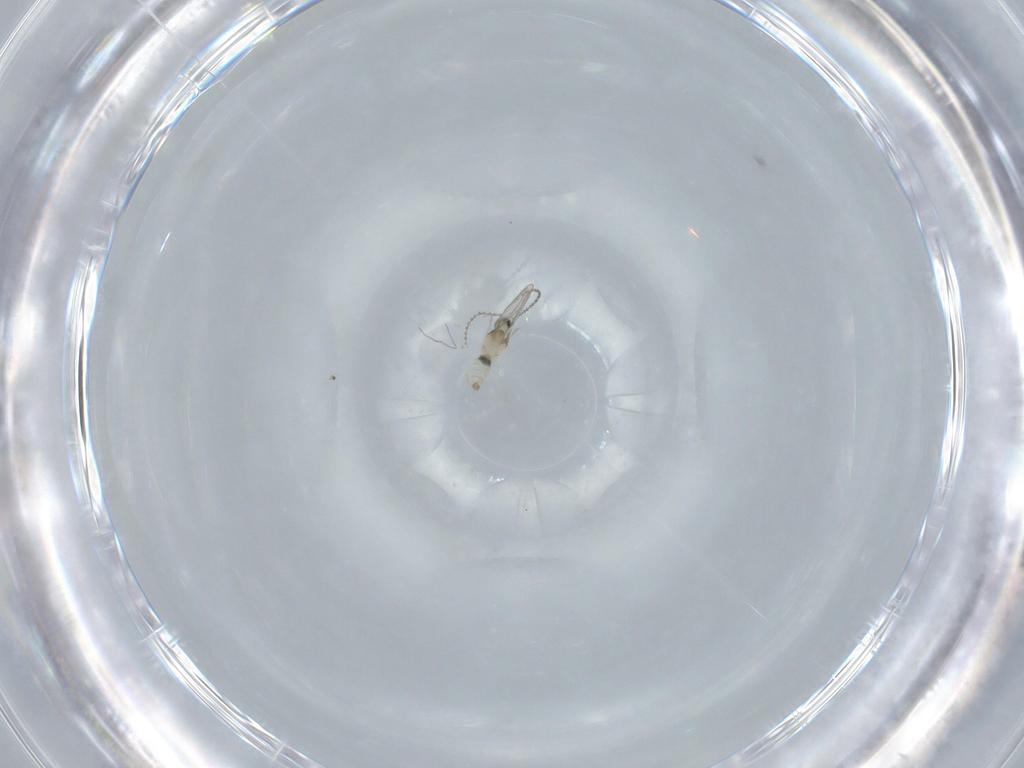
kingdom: Animalia
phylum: Arthropoda
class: Insecta
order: Diptera
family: Cecidomyiidae
